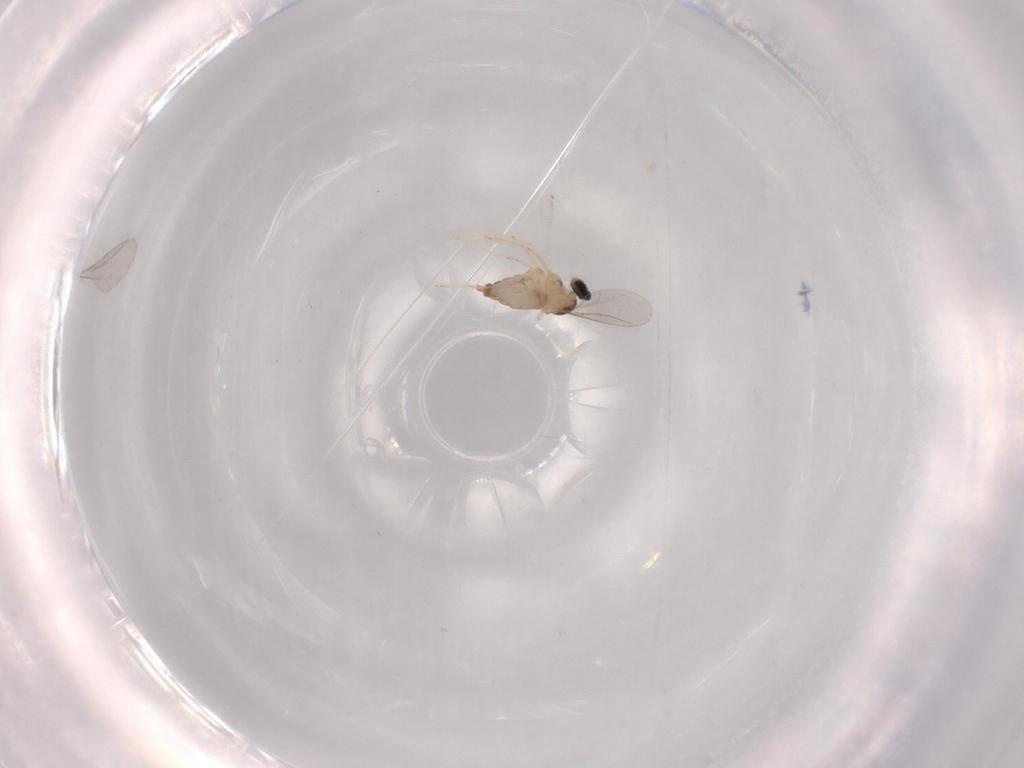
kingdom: Animalia
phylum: Arthropoda
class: Insecta
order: Diptera
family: Cecidomyiidae
